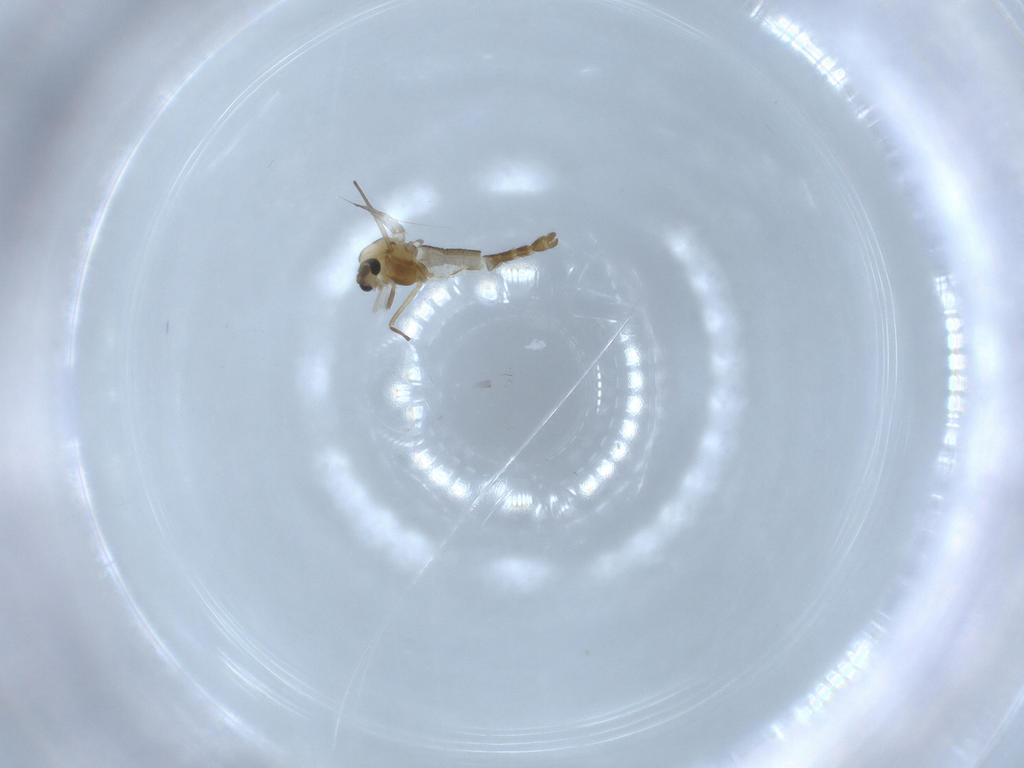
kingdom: Animalia
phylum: Arthropoda
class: Insecta
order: Diptera
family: Chironomidae
